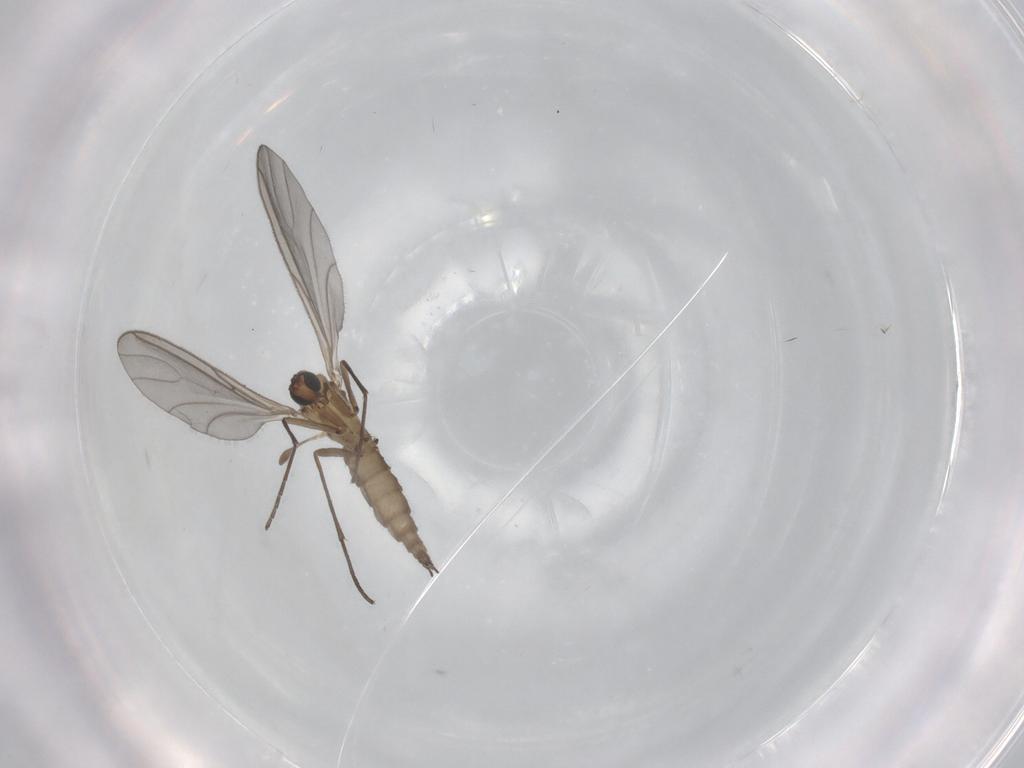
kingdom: Animalia
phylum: Arthropoda
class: Insecta
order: Diptera
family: Sciaridae
